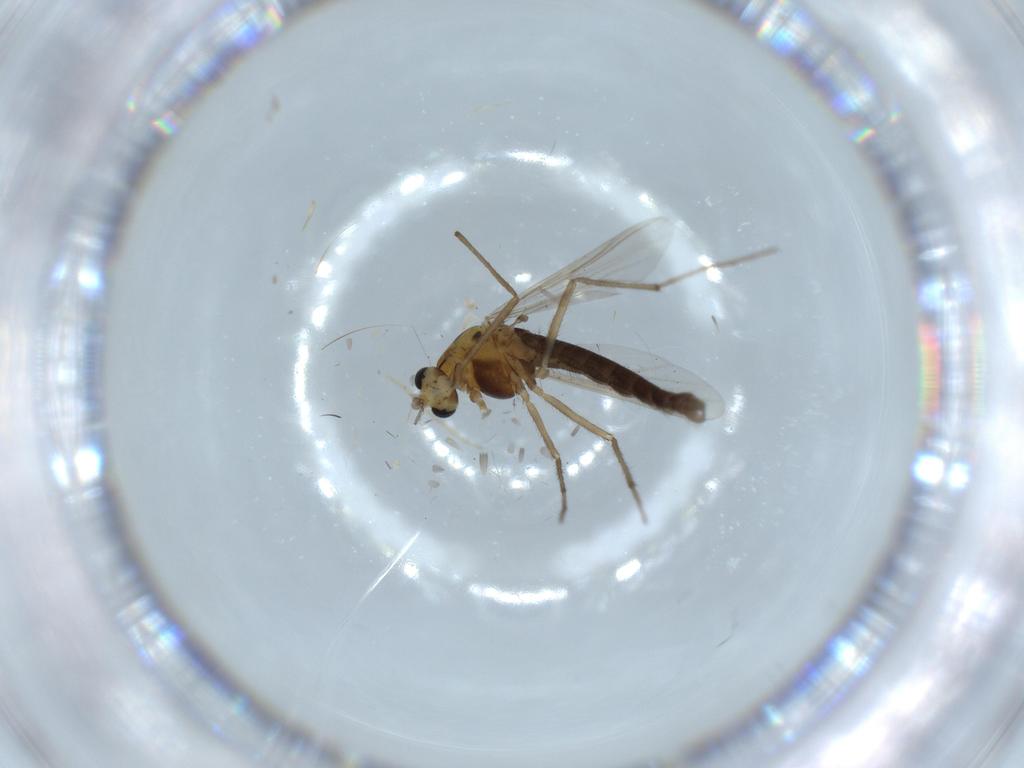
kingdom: Animalia
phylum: Arthropoda
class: Insecta
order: Diptera
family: Chironomidae
